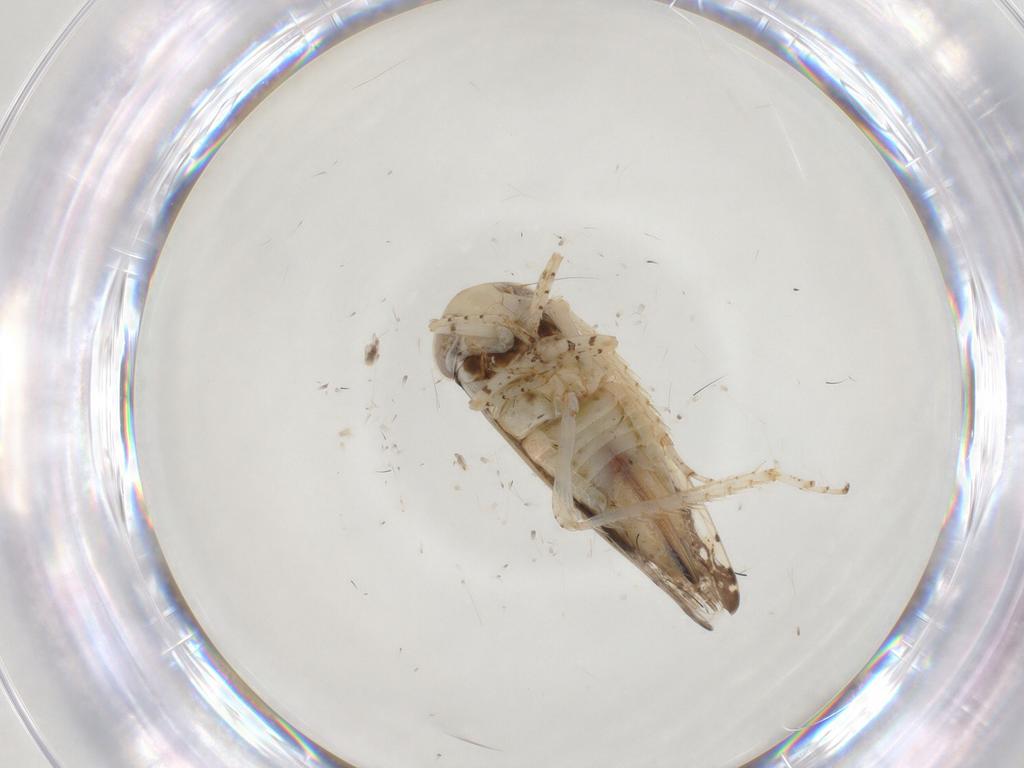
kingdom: Animalia
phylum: Arthropoda
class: Insecta
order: Hemiptera
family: Cicadellidae
